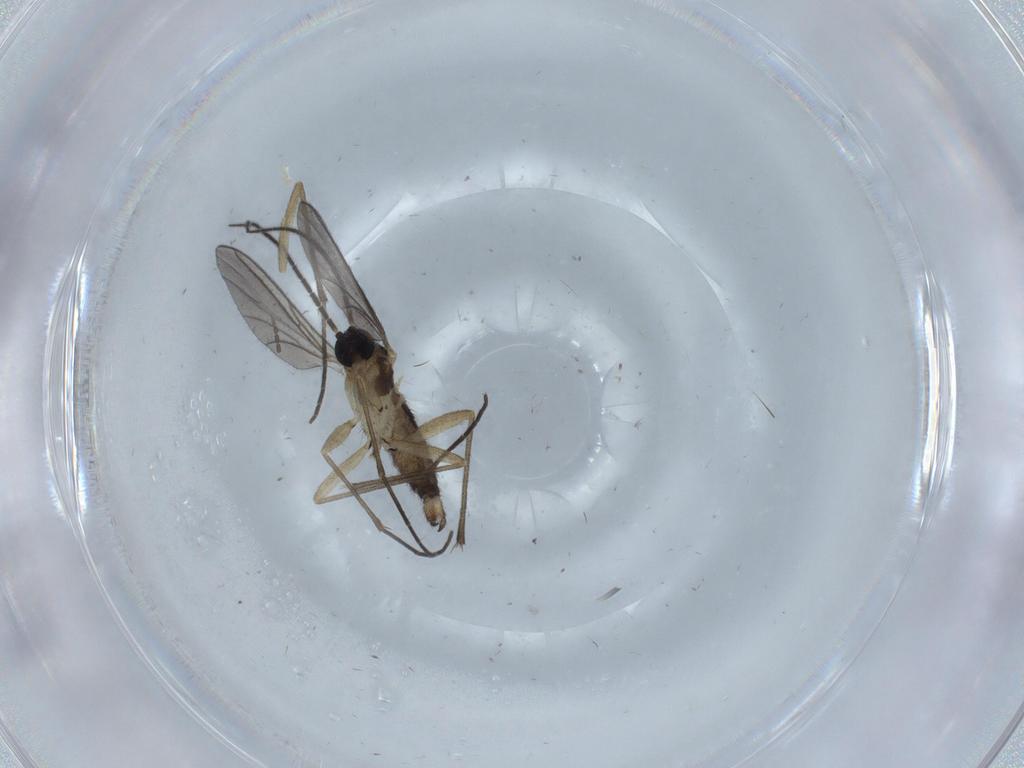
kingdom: Animalia
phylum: Arthropoda
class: Insecta
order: Diptera
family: Sciaridae
